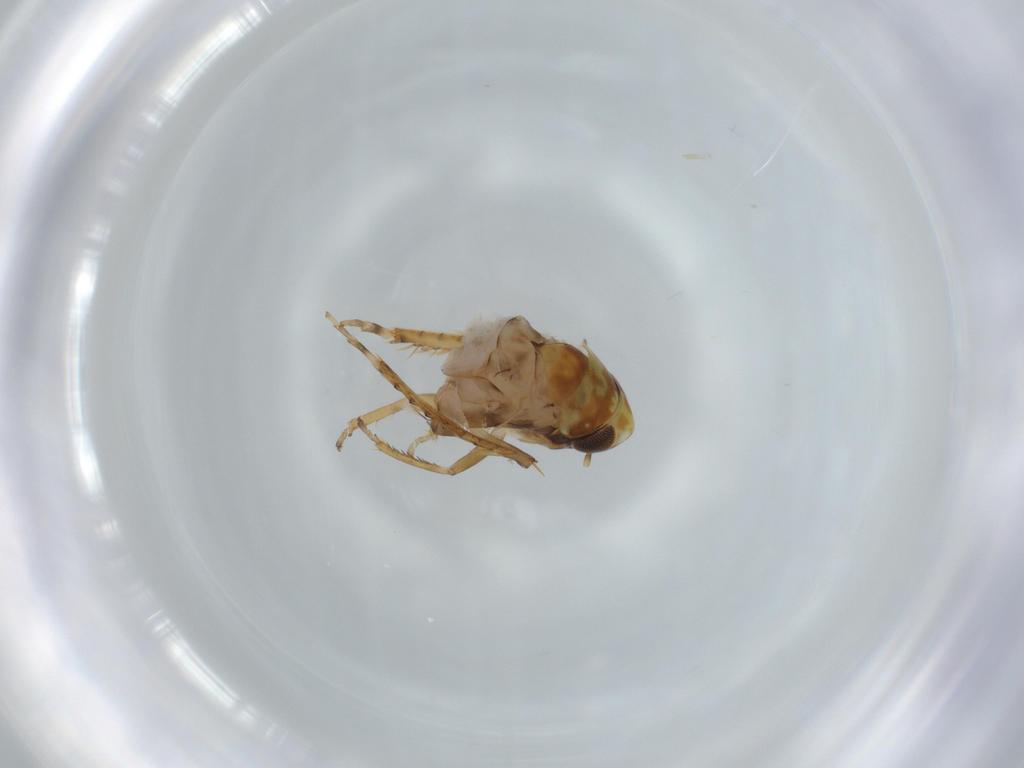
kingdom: Animalia
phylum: Arthropoda
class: Insecta
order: Hemiptera
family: Cicadellidae
